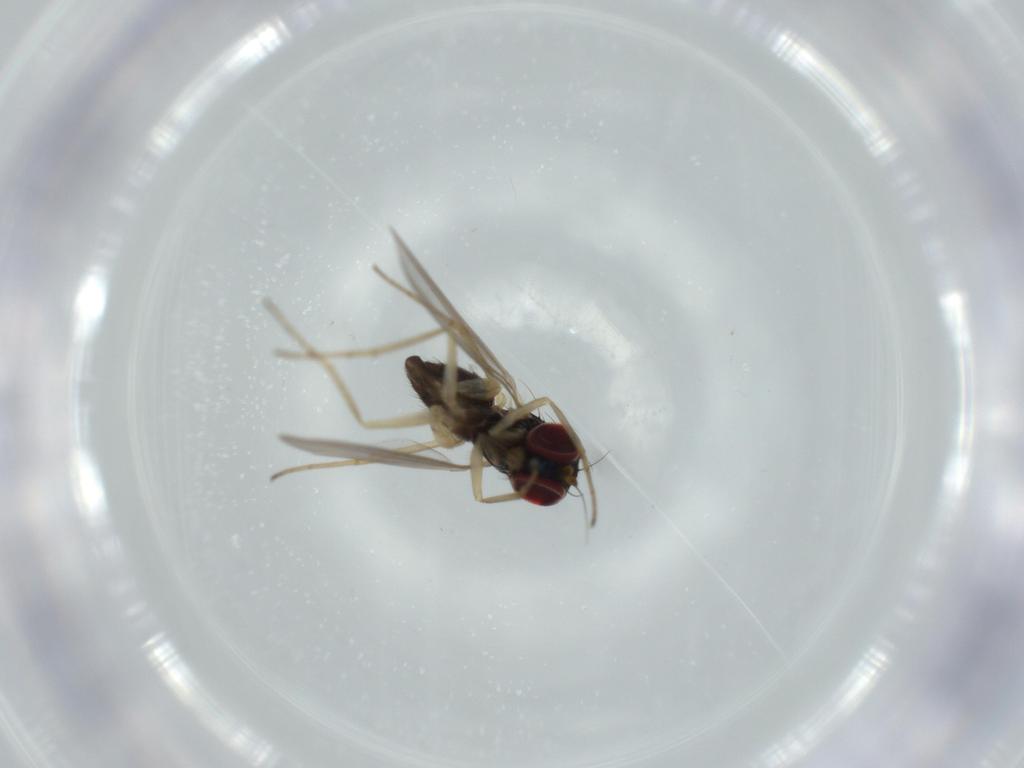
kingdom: Animalia
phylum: Arthropoda
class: Insecta
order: Diptera
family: Dolichopodidae
